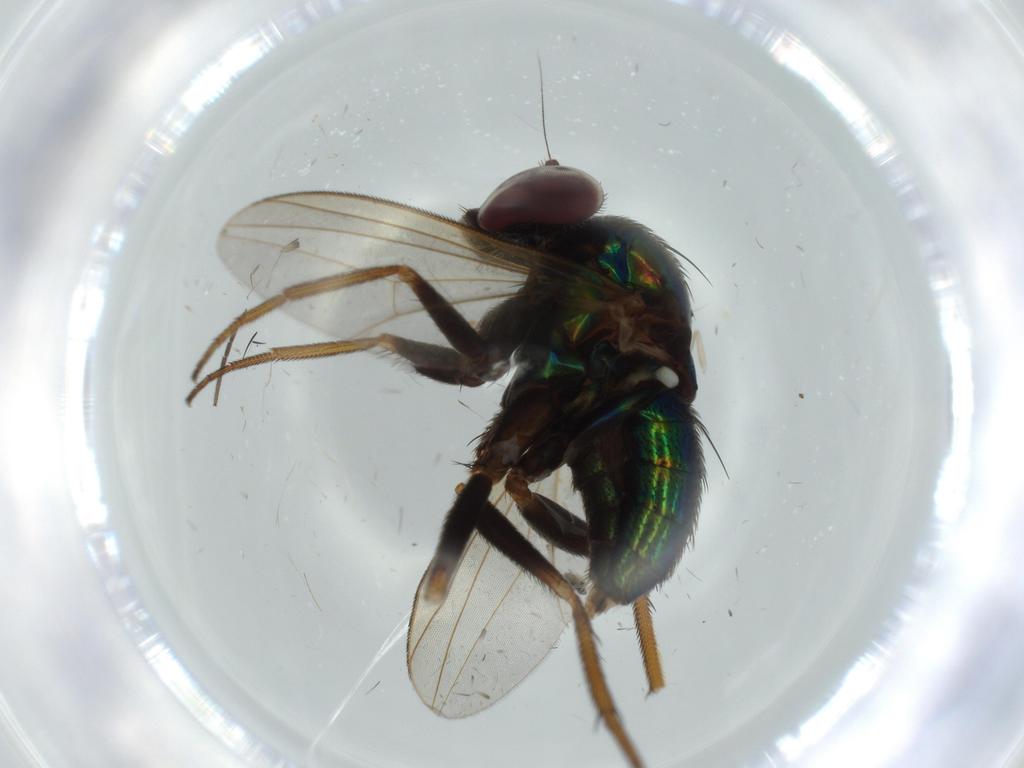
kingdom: Animalia
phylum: Arthropoda
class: Insecta
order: Diptera
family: Dolichopodidae
